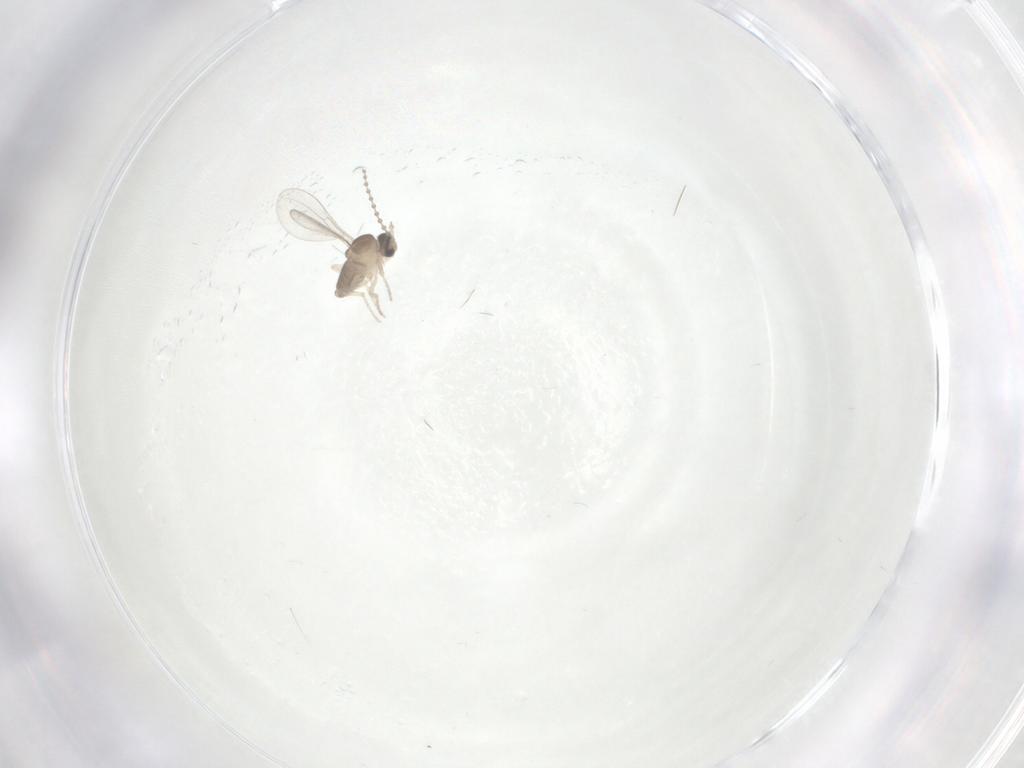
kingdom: Animalia
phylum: Arthropoda
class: Insecta
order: Diptera
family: Cecidomyiidae
